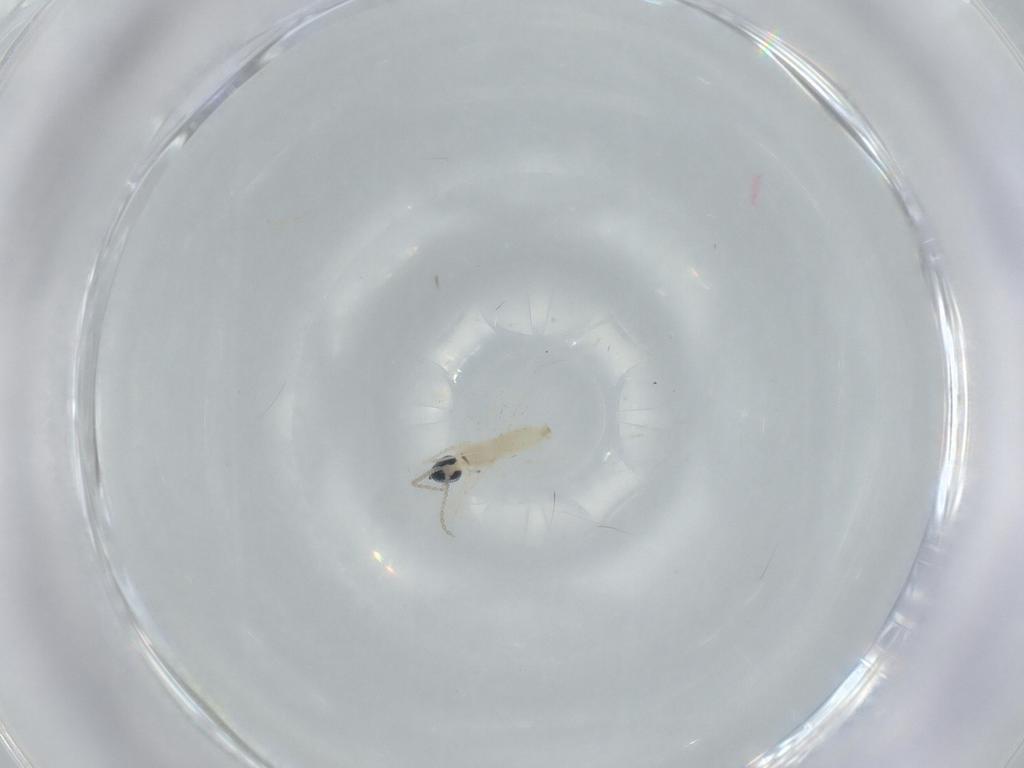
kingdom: Animalia
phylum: Arthropoda
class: Insecta
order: Diptera
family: Cecidomyiidae
